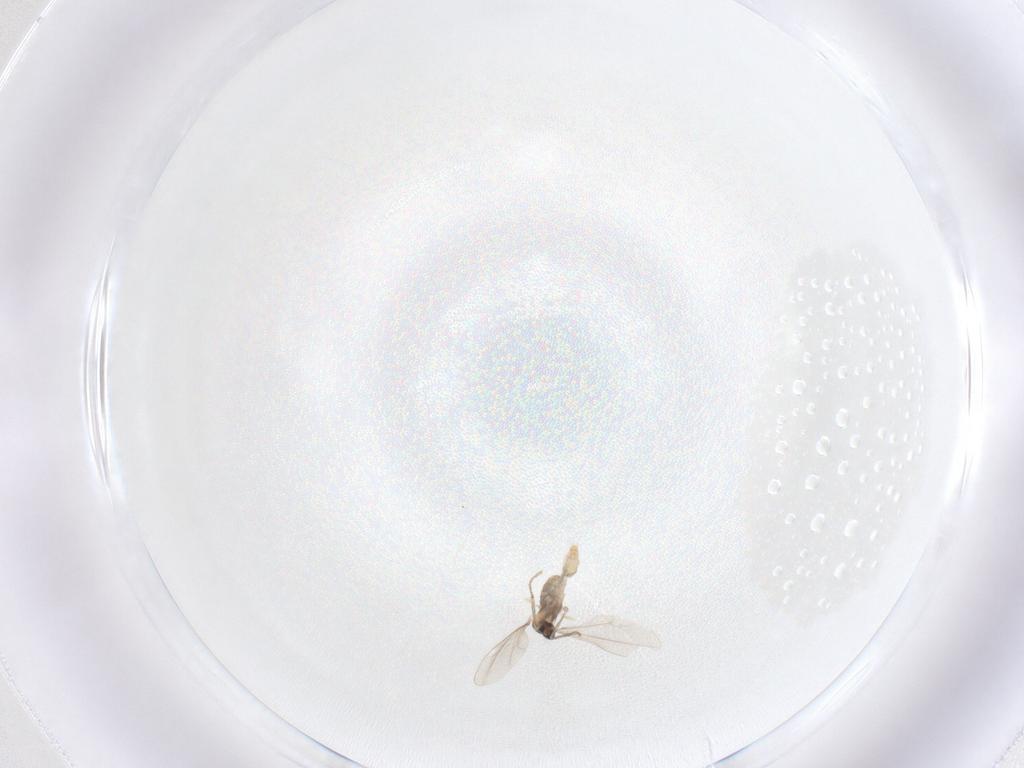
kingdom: Animalia
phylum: Arthropoda
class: Insecta
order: Diptera
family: Cecidomyiidae
